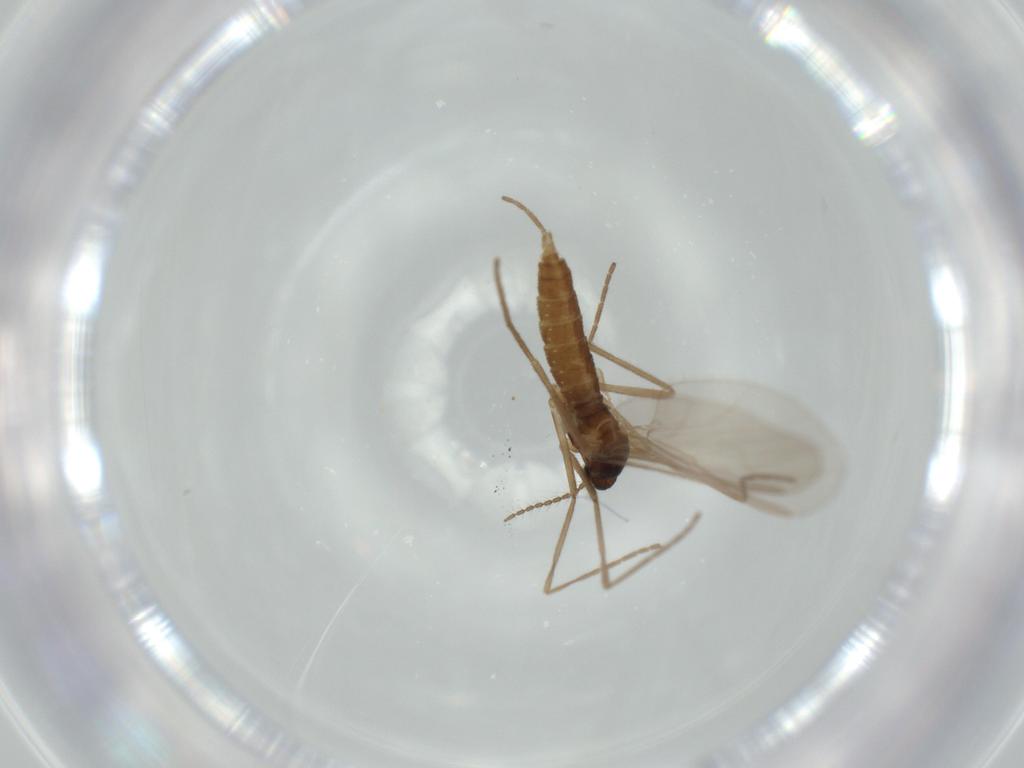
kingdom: Animalia
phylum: Arthropoda
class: Insecta
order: Diptera
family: Cecidomyiidae
